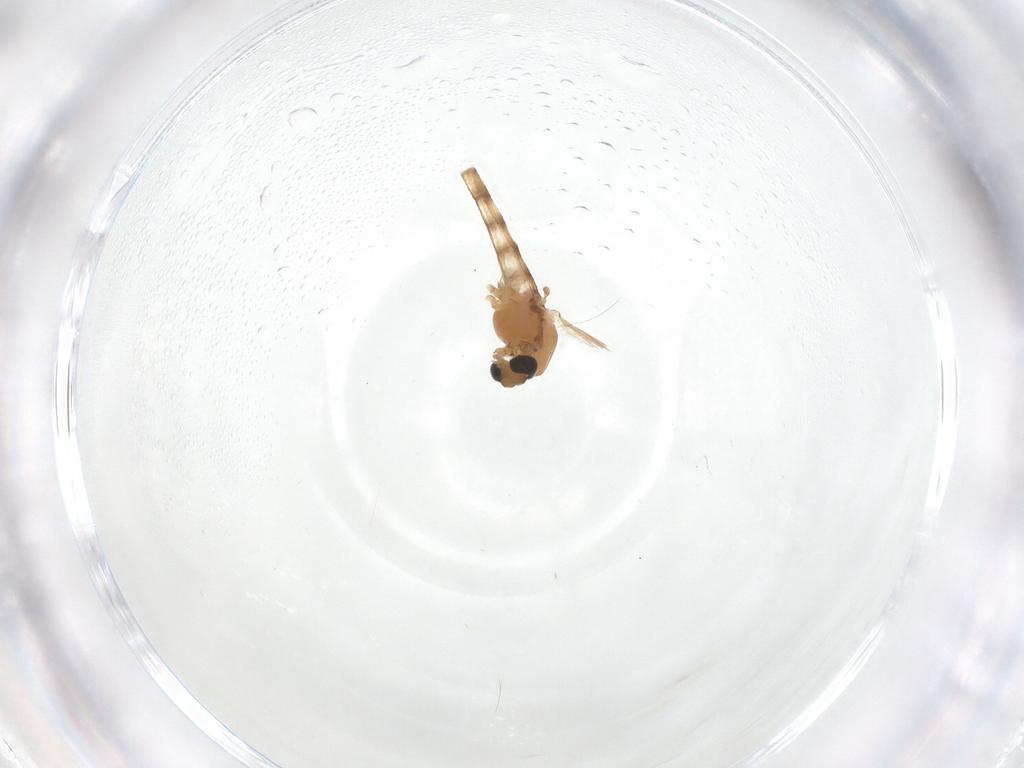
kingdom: Animalia
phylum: Arthropoda
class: Insecta
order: Diptera
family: Chironomidae
